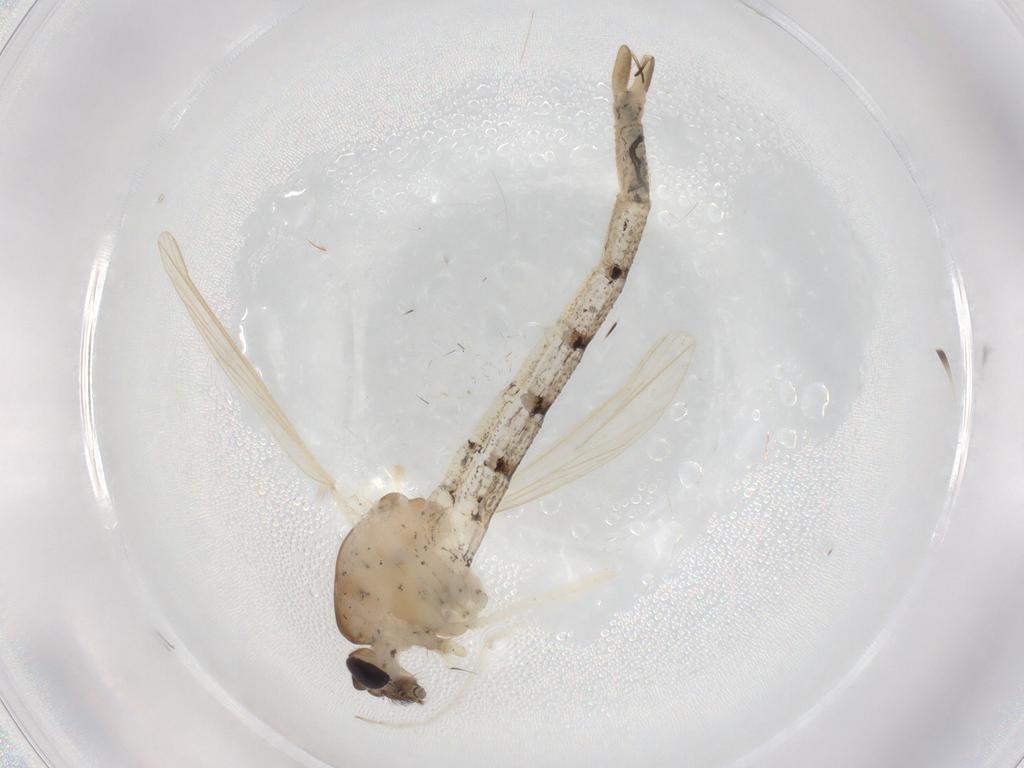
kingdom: Animalia
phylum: Arthropoda
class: Insecta
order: Diptera
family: Chaoboridae
